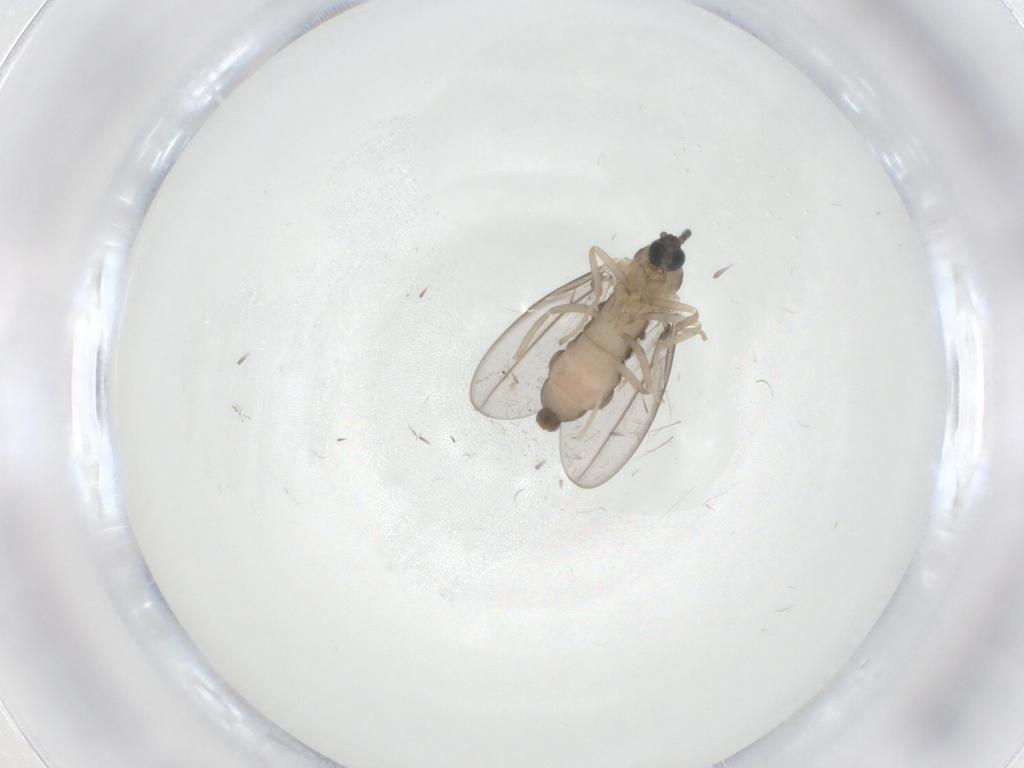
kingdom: Animalia
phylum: Arthropoda
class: Insecta
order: Diptera
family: Cecidomyiidae
